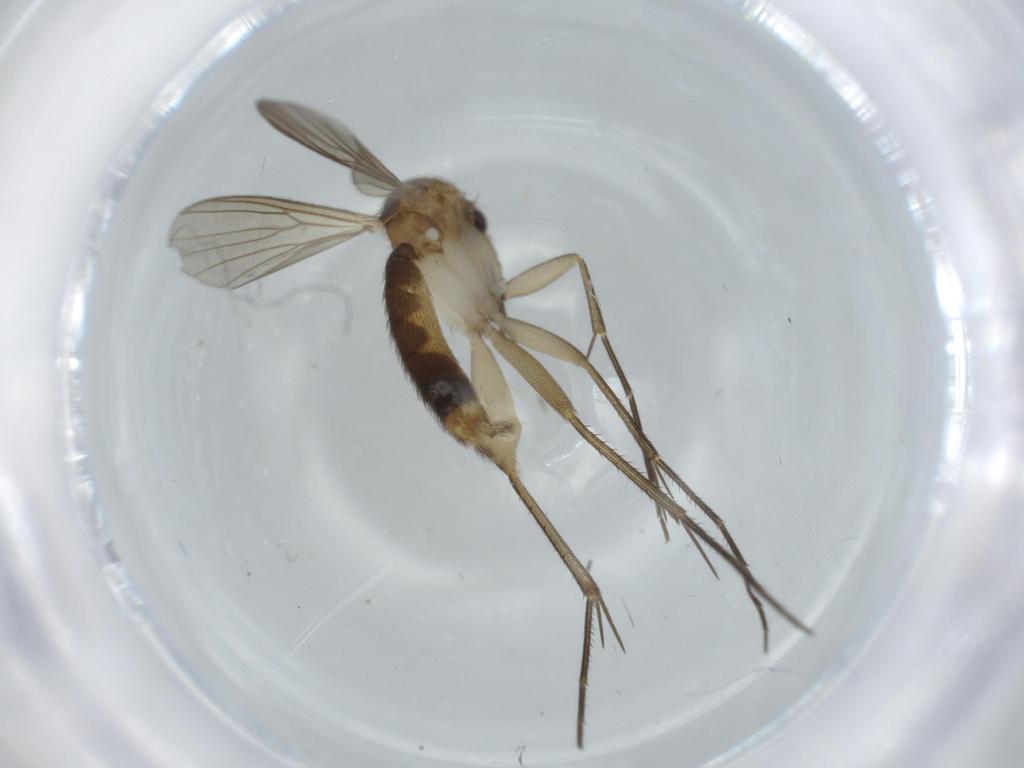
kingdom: Animalia
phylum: Arthropoda
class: Insecta
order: Diptera
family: Mycetophilidae
